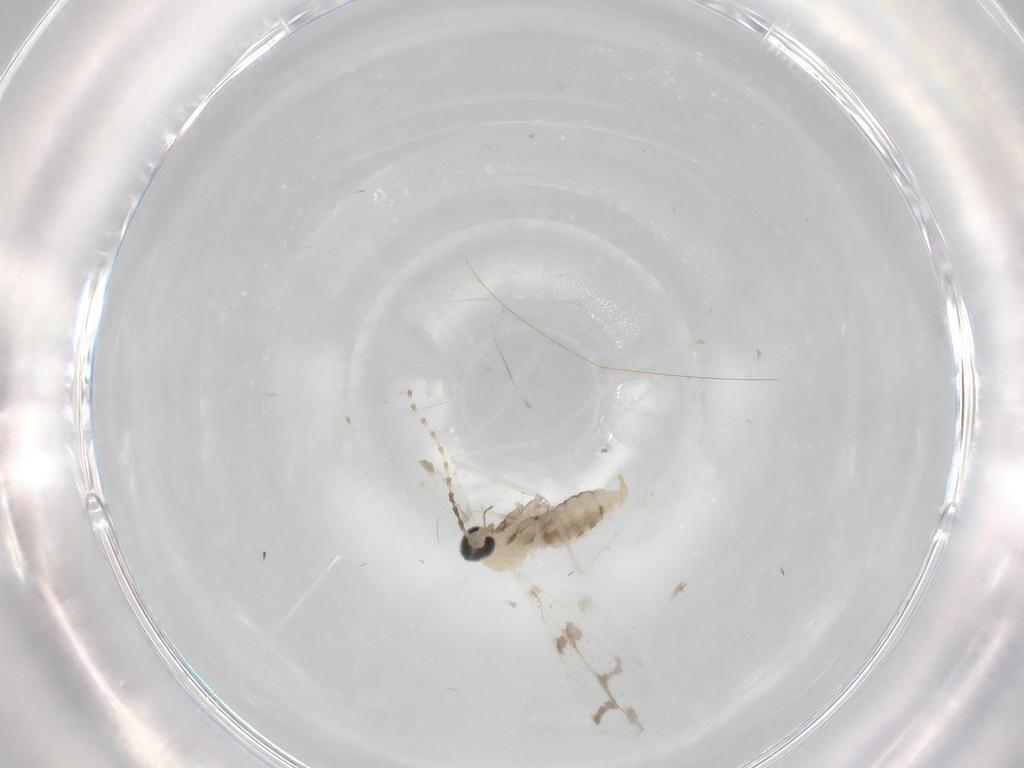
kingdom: Animalia
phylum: Arthropoda
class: Insecta
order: Diptera
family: Cecidomyiidae
